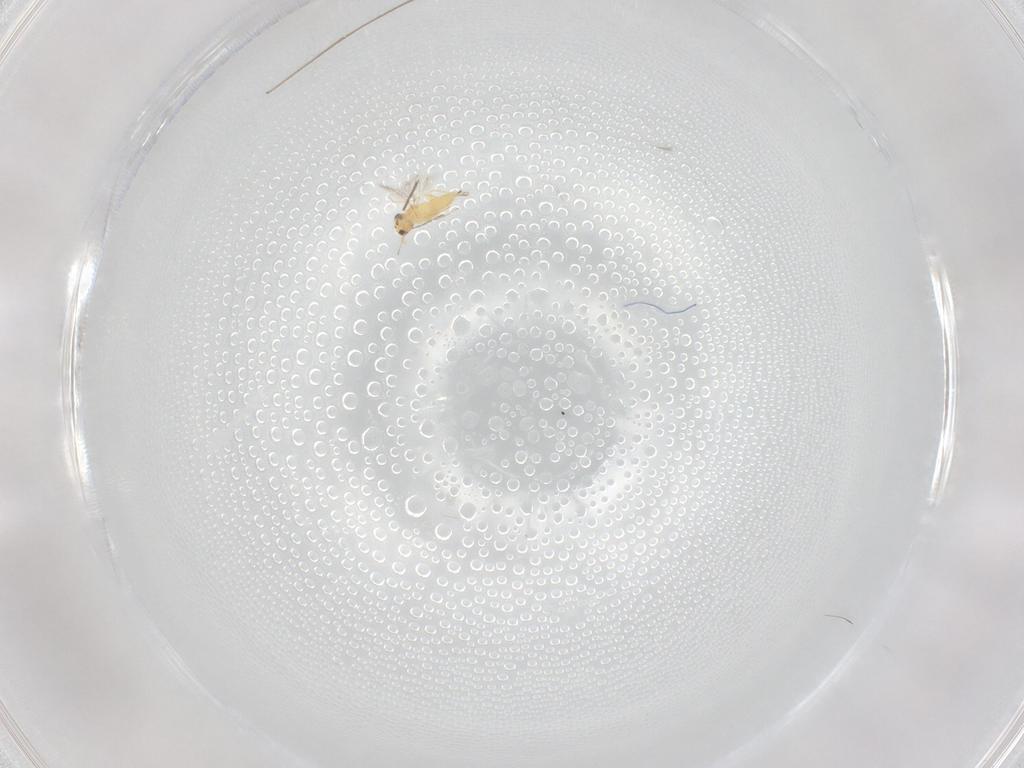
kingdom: Animalia
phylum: Arthropoda
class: Insecta
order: Hymenoptera
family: Mymaridae
